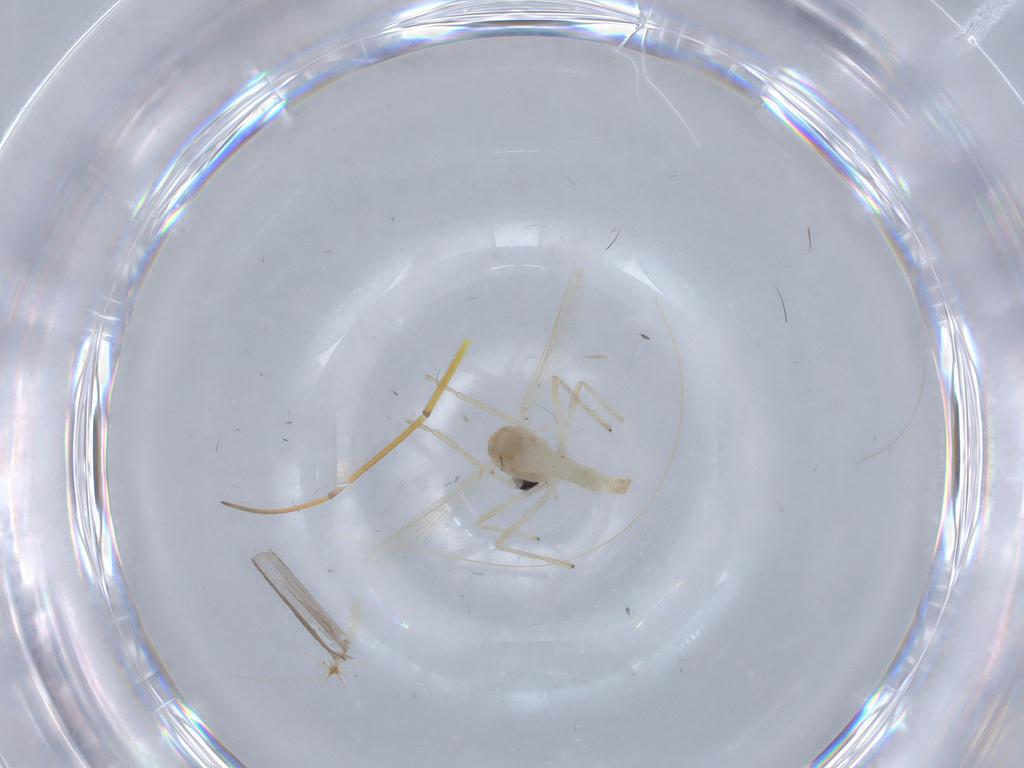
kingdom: Animalia
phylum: Arthropoda
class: Insecta
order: Diptera
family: Chironomidae
